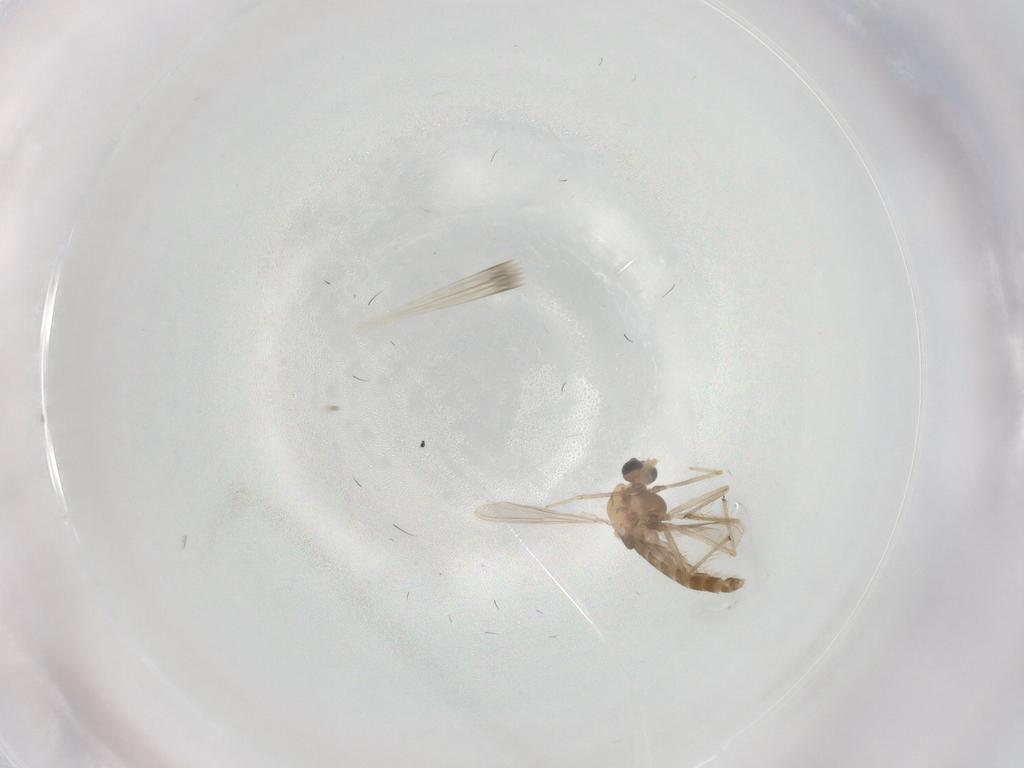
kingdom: Animalia
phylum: Arthropoda
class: Insecta
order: Diptera
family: Chironomidae
